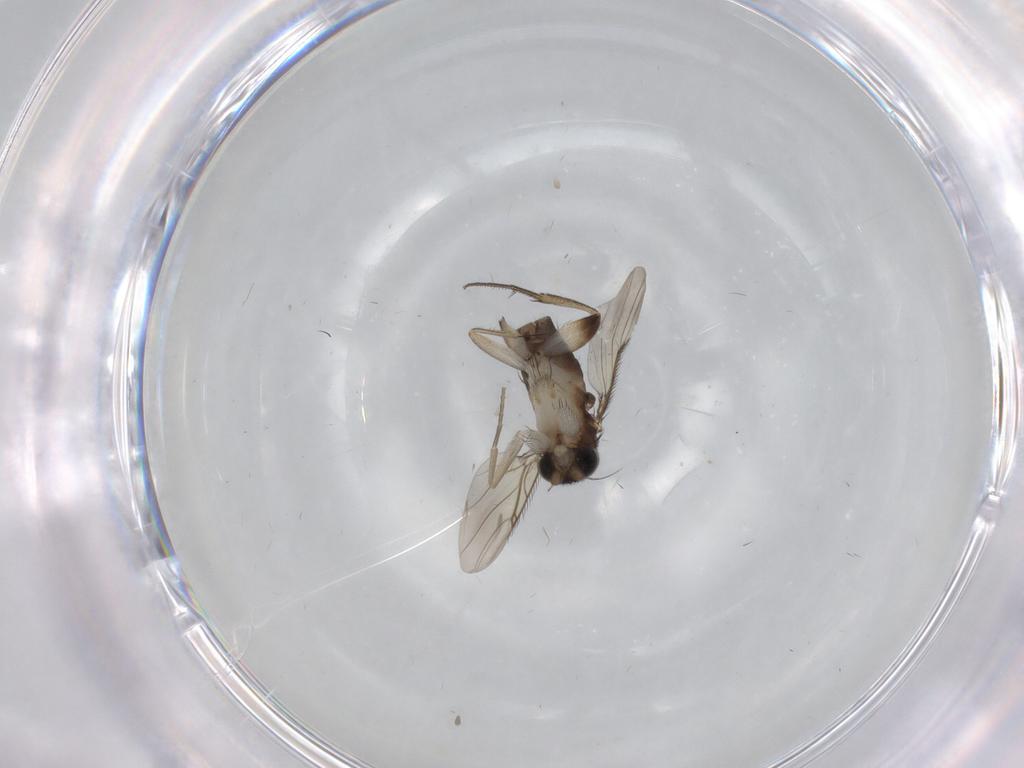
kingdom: Animalia
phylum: Arthropoda
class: Insecta
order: Diptera
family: Phoridae
